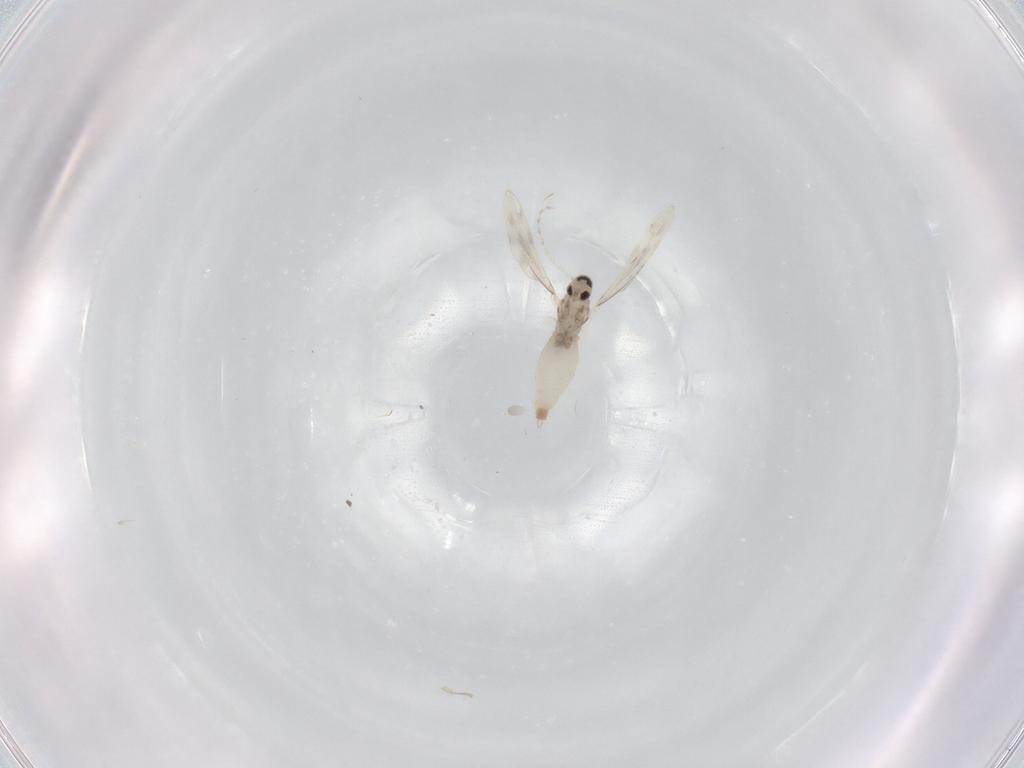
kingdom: Animalia
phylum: Arthropoda
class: Insecta
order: Diptera
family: Cecidomyiidae
